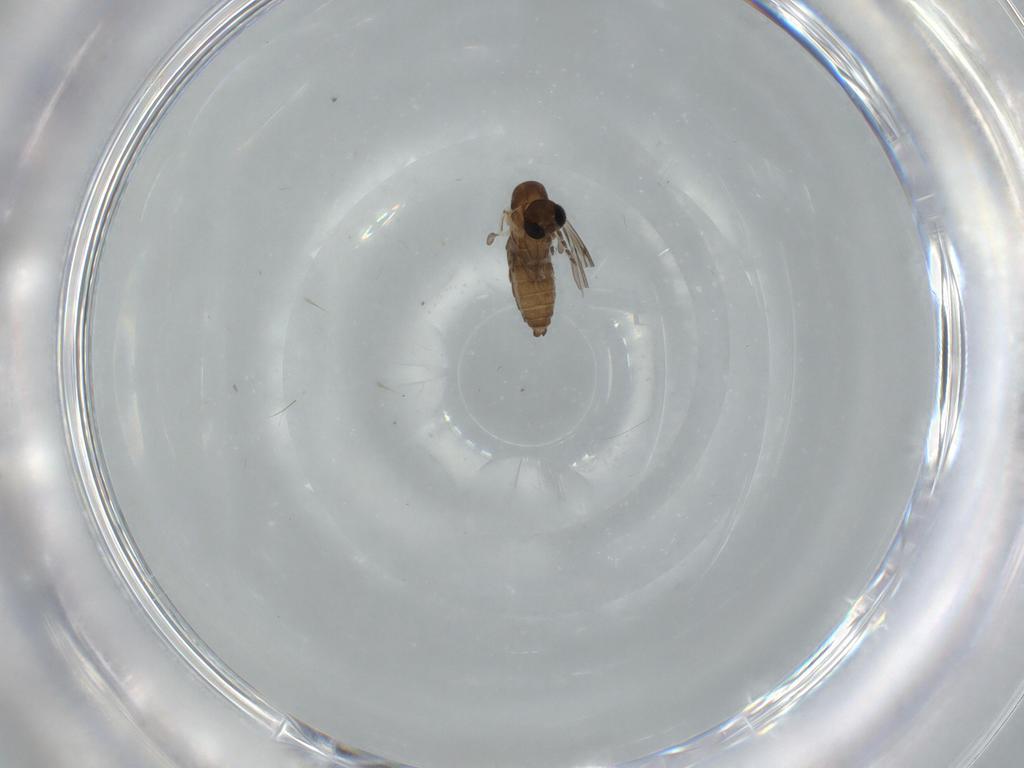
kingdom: Animalia
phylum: Arthropoda
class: Insecta
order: Diptera
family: Psychodidae
